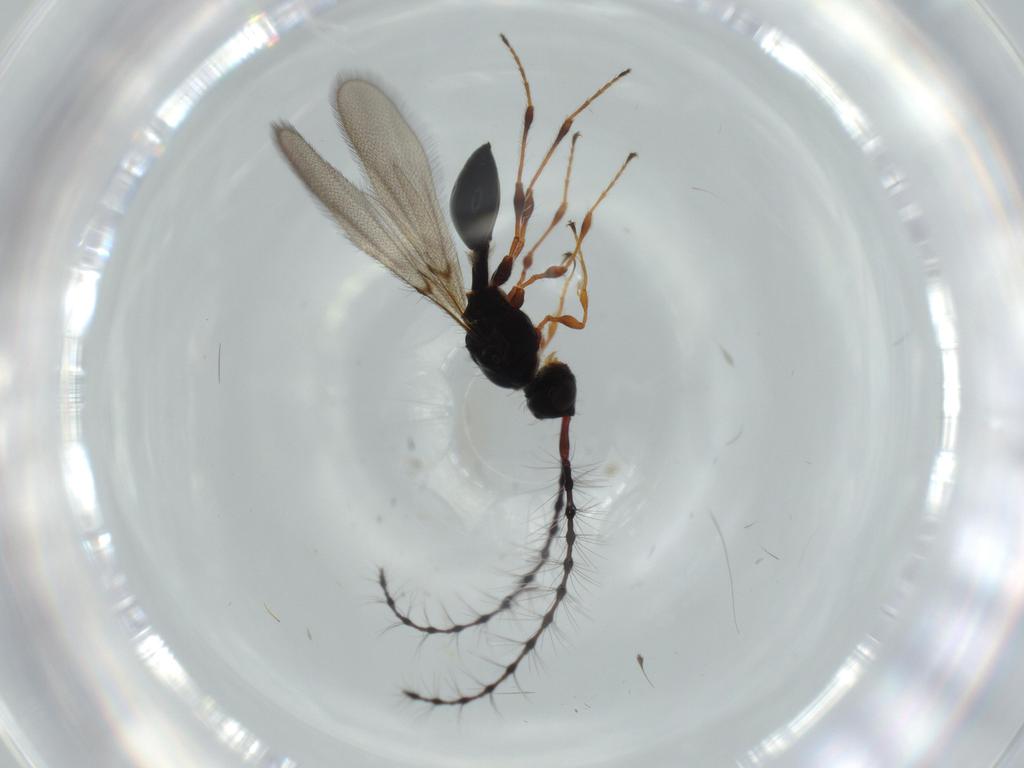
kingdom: Animalia
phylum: Arthropoda
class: Insecta
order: Hymenoptera
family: Diapriidae
